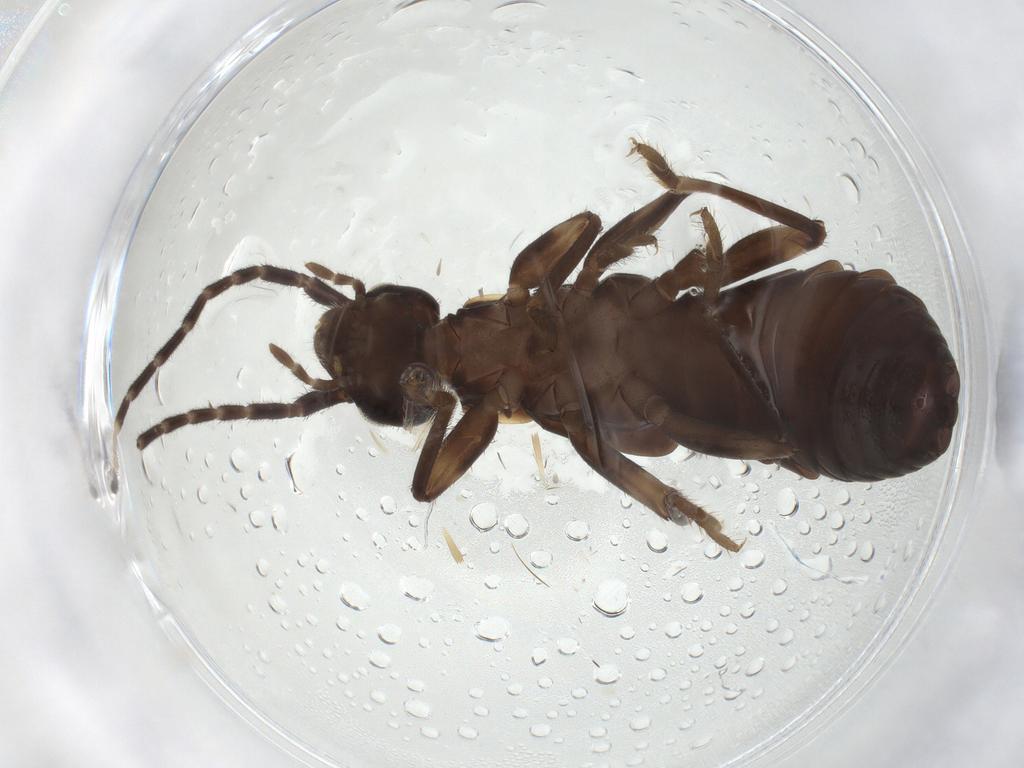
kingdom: Animalia
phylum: Arthropoda
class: Insecta
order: Dermaptera
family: Spongiphoridae
